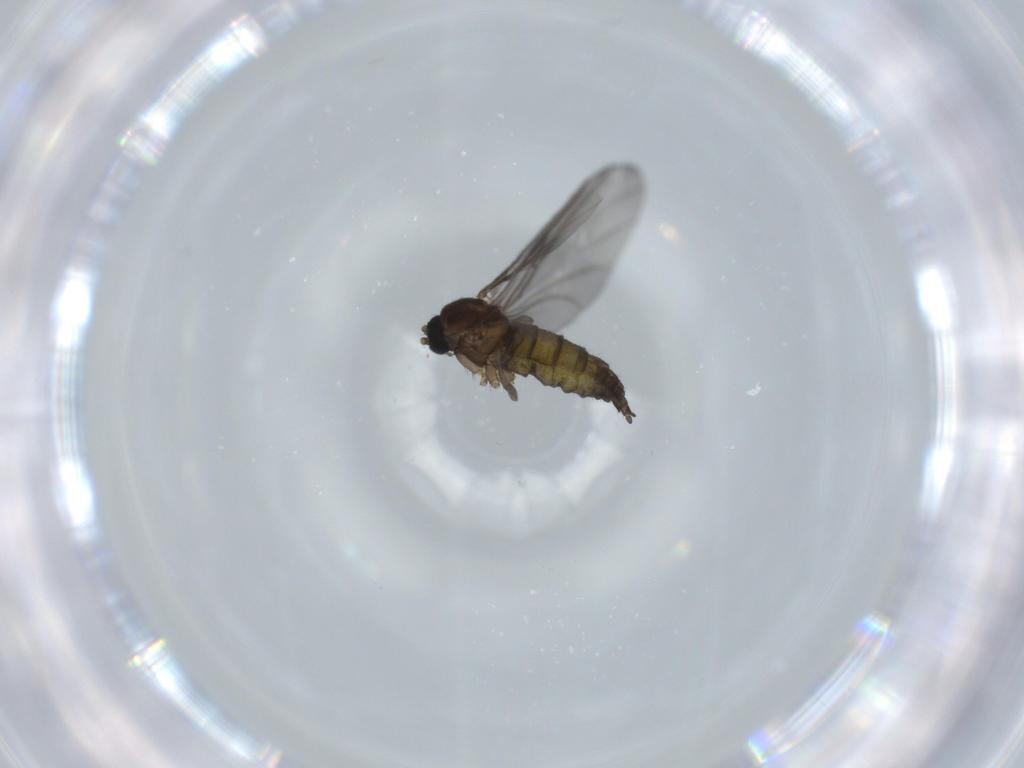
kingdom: Animalia
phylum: Arthropoda
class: Insecta
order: Diptera
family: Sciaridae
